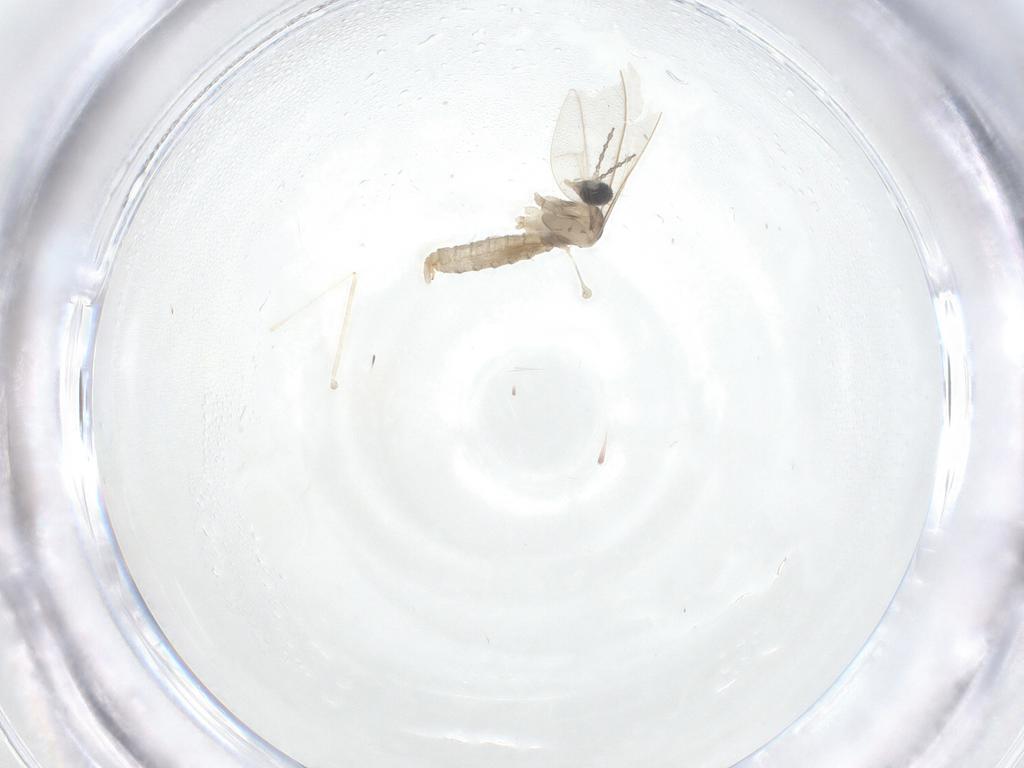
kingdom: Animalia
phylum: Arthropoda
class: Insecta
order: Diptera
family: Cecidomyiidae
